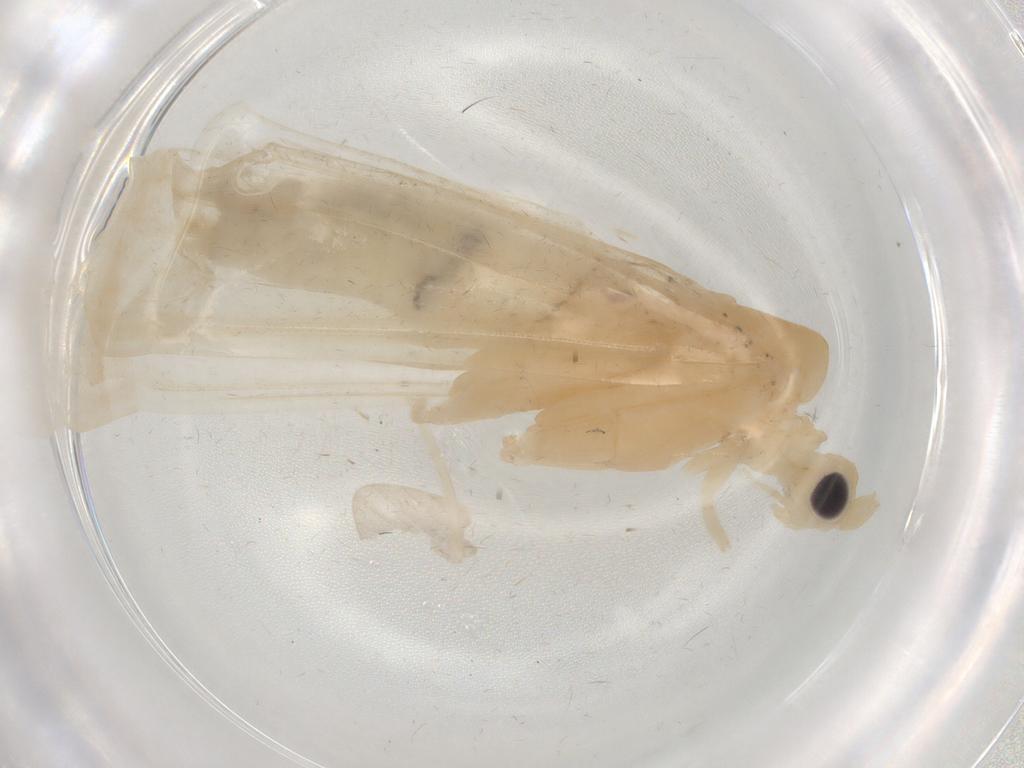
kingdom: Animalia
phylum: Arthropoda
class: Insecta
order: Trichoptera
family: Leptoceridae
